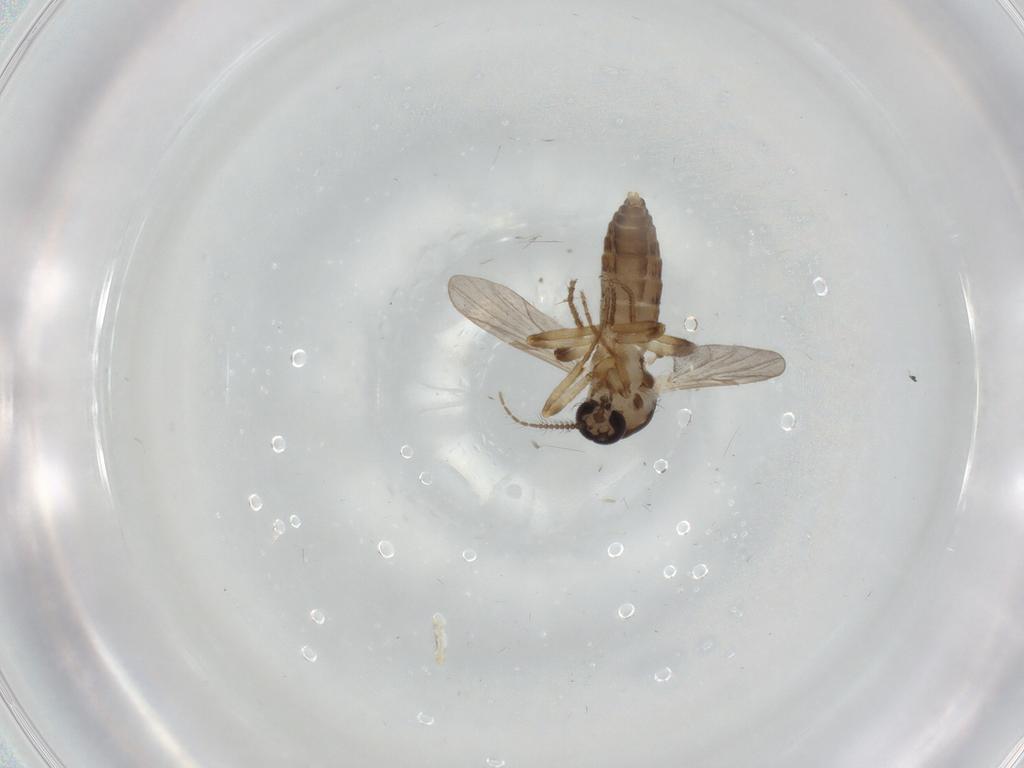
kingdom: Animalia
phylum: Arthropoda
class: Insecta
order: Diptera
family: Ceratopogonidae
